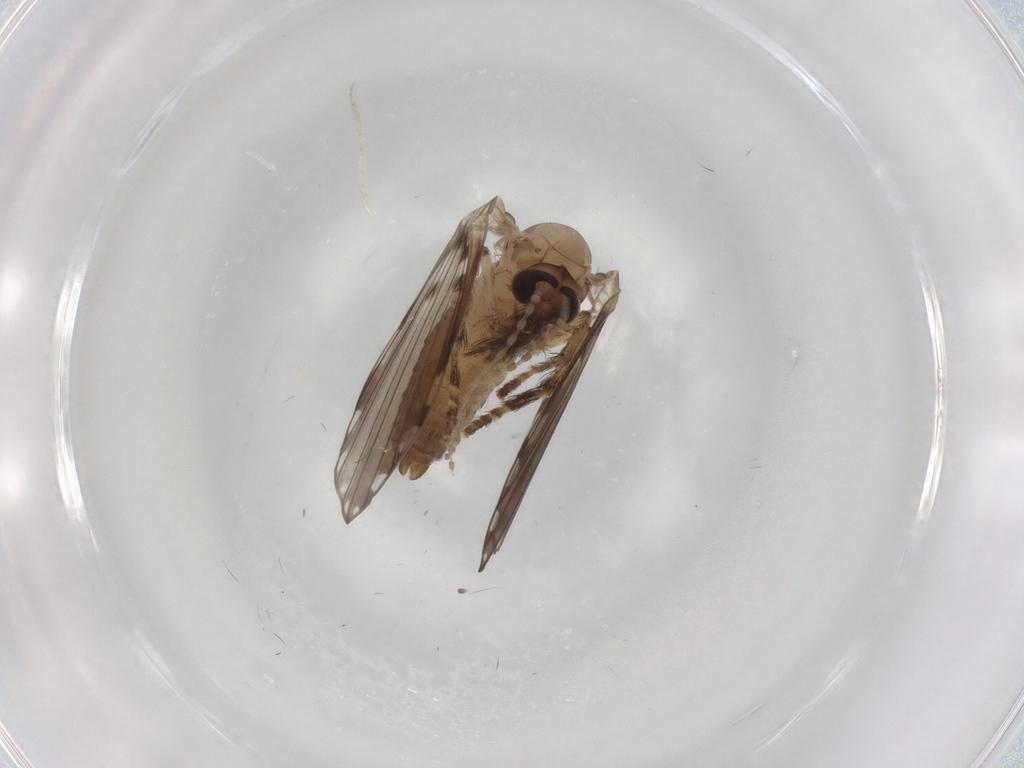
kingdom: Animalia
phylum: Arthropoda
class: Insecta
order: Diptera
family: Psychodidae
